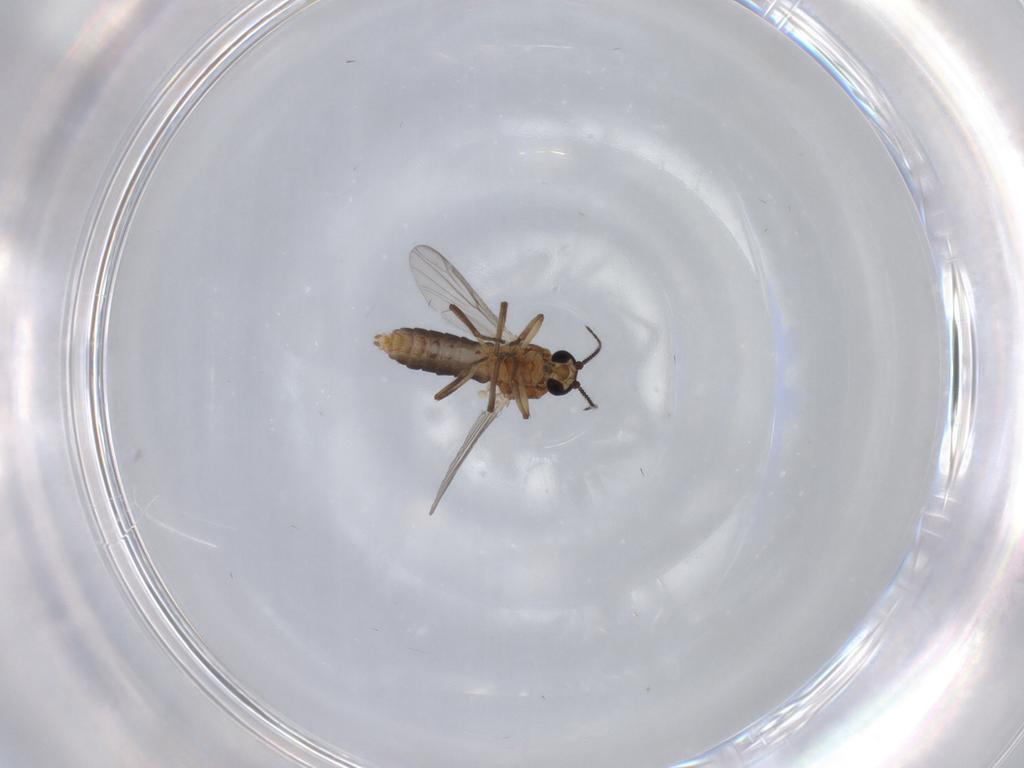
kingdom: Animalia
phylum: Arthropoda
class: Insecta
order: Diptera
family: Ceratopogonidae
